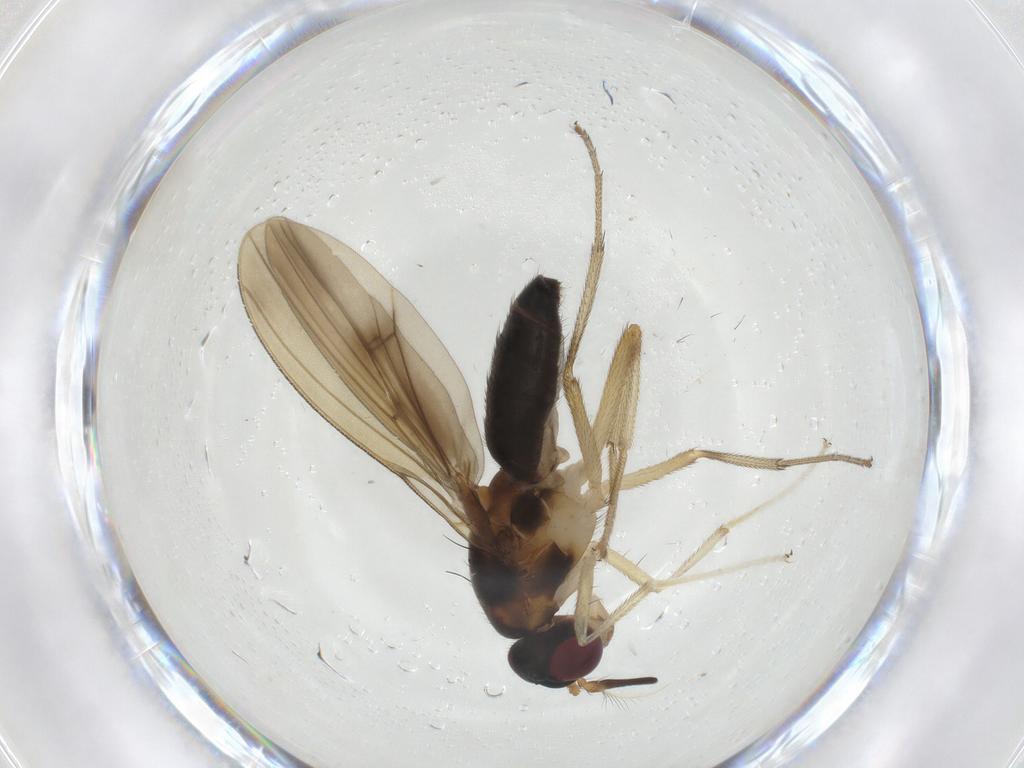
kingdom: Animalia
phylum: Arthropoda
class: Insecta
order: Diptera
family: Lauxaniidae
